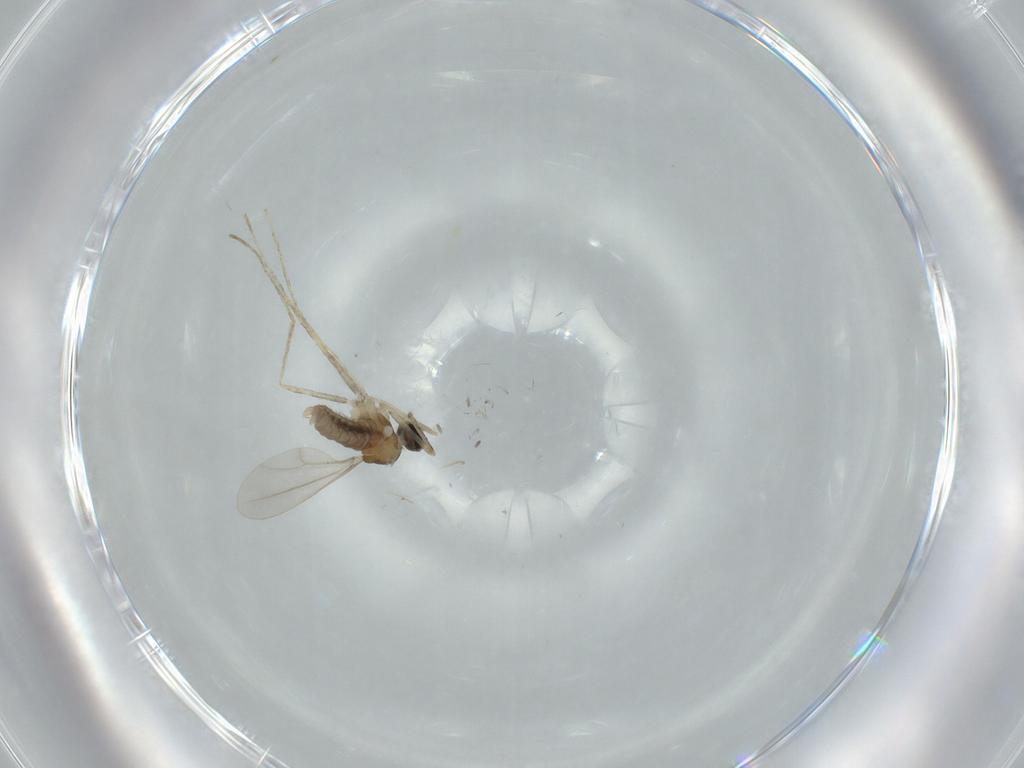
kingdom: Animalia
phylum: Arthropoda
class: Insecta
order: Diptera
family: Cecidomyiidae
